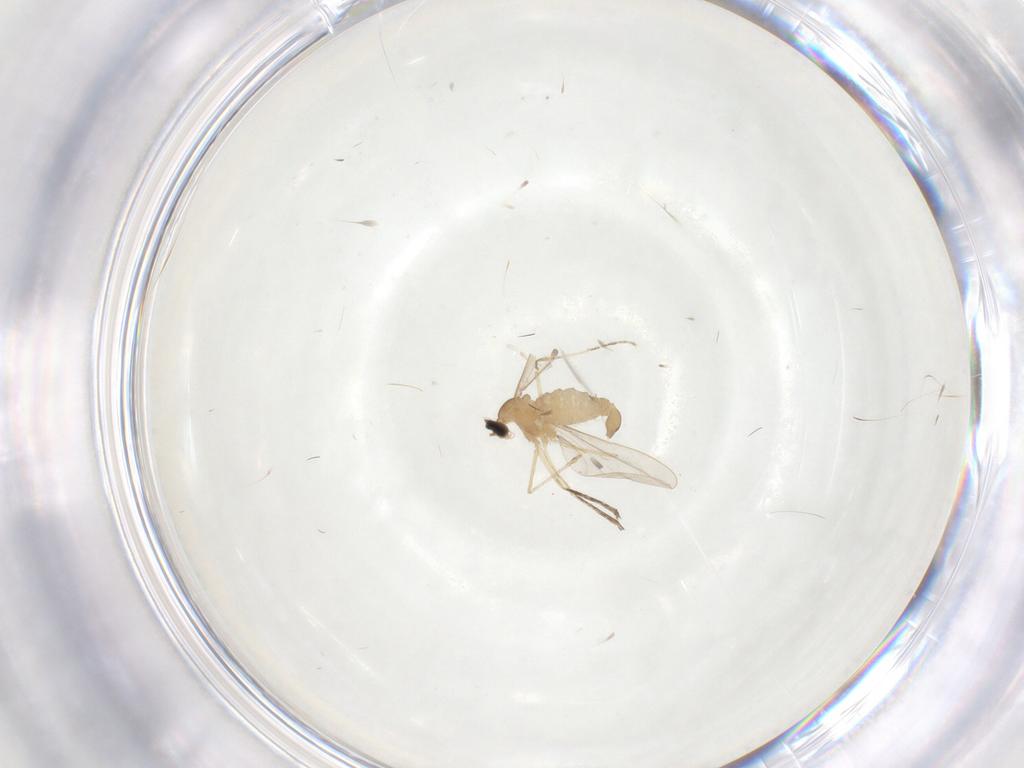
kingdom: Animalia
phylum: Arthropoda
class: Insecta
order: Diptera
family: Cecidomyiidae
